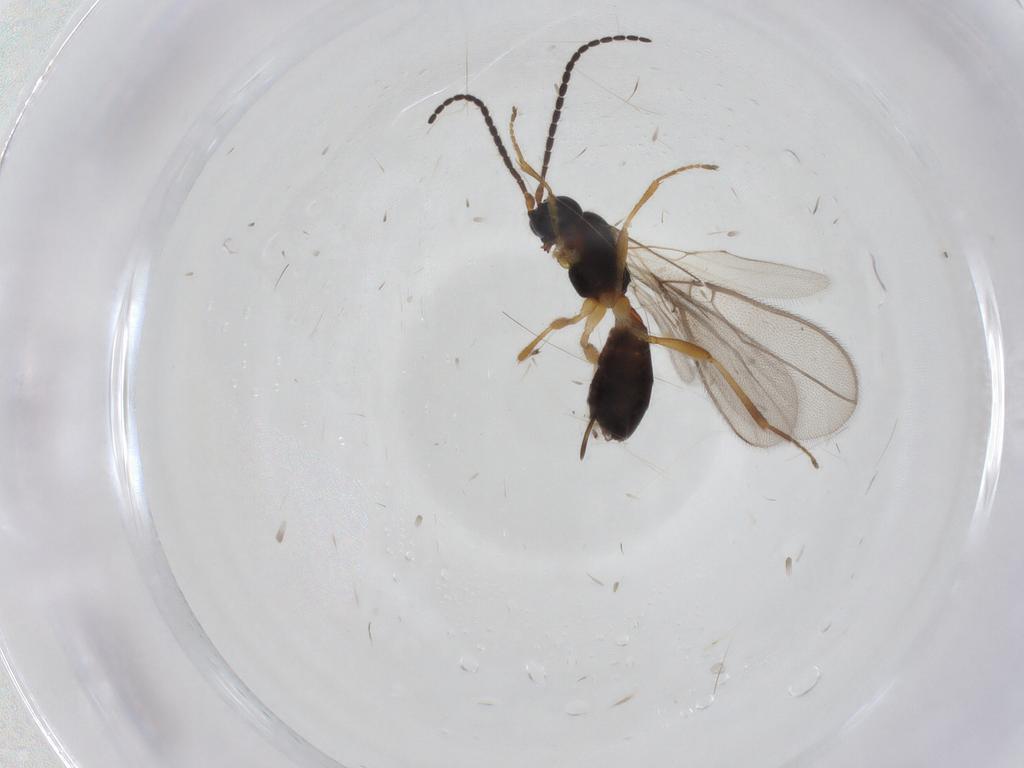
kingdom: Animalia
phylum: Arthropoda
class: Insecta
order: Hymenoptera
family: Braconidae
